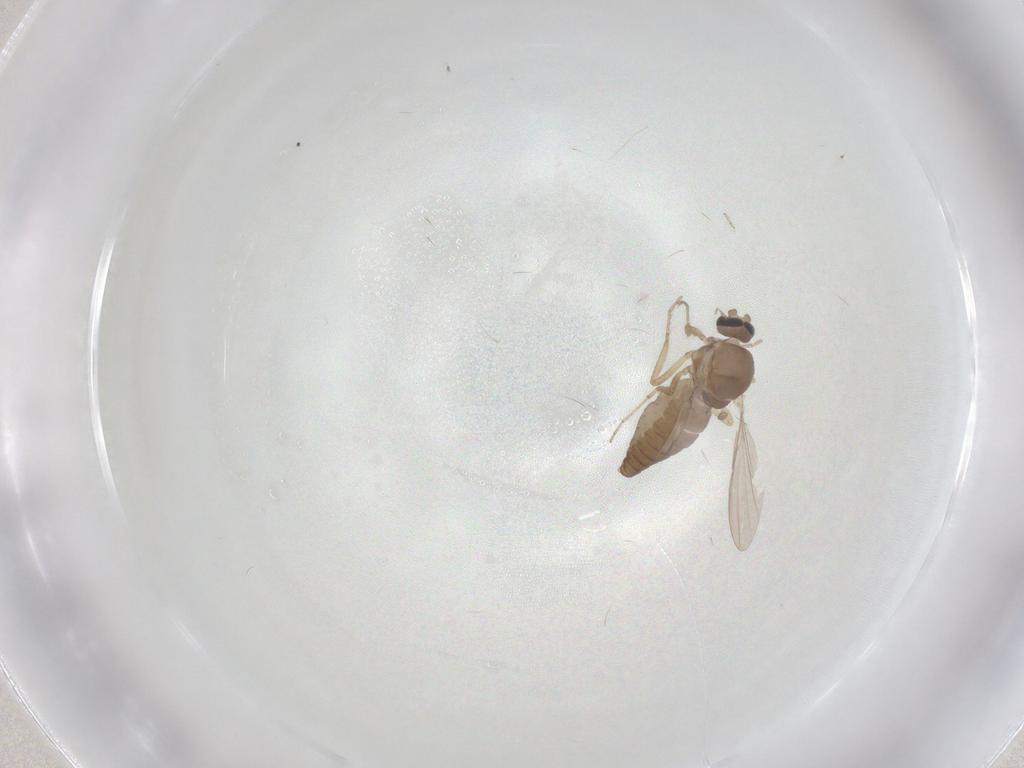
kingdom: Animalia
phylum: Arthropoda
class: Insecta
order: Diptera
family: Ceratopogonidae
